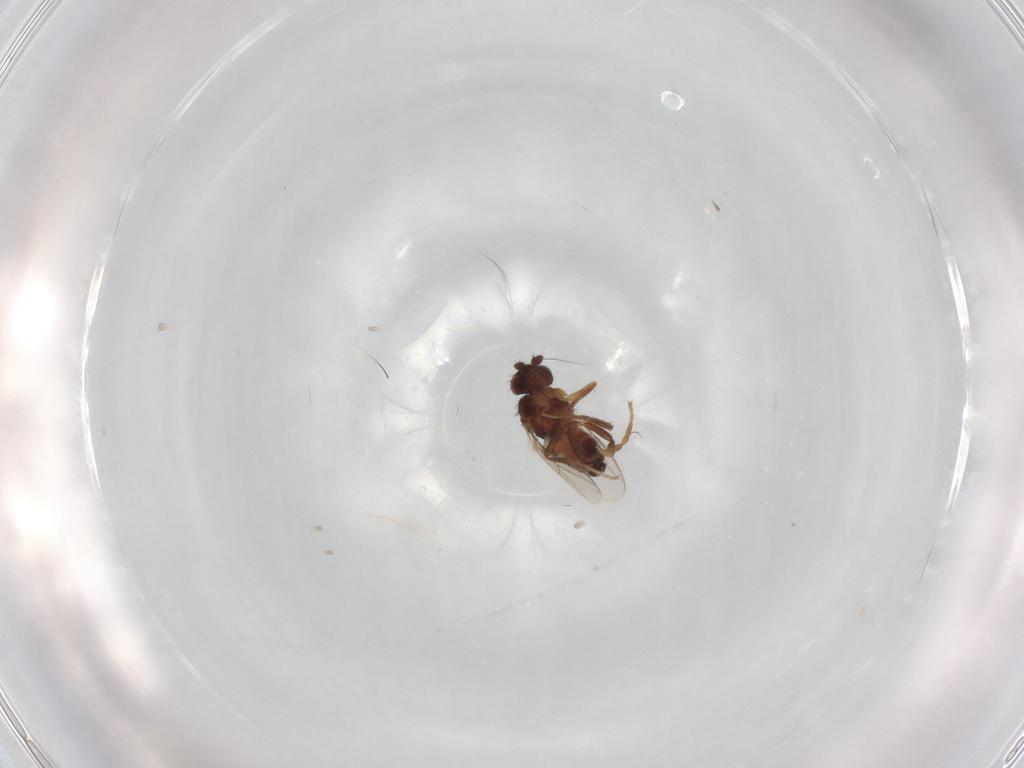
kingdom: Animalia
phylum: Arthropoda
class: Insecta
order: Diptera
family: Sphaeroceridae
